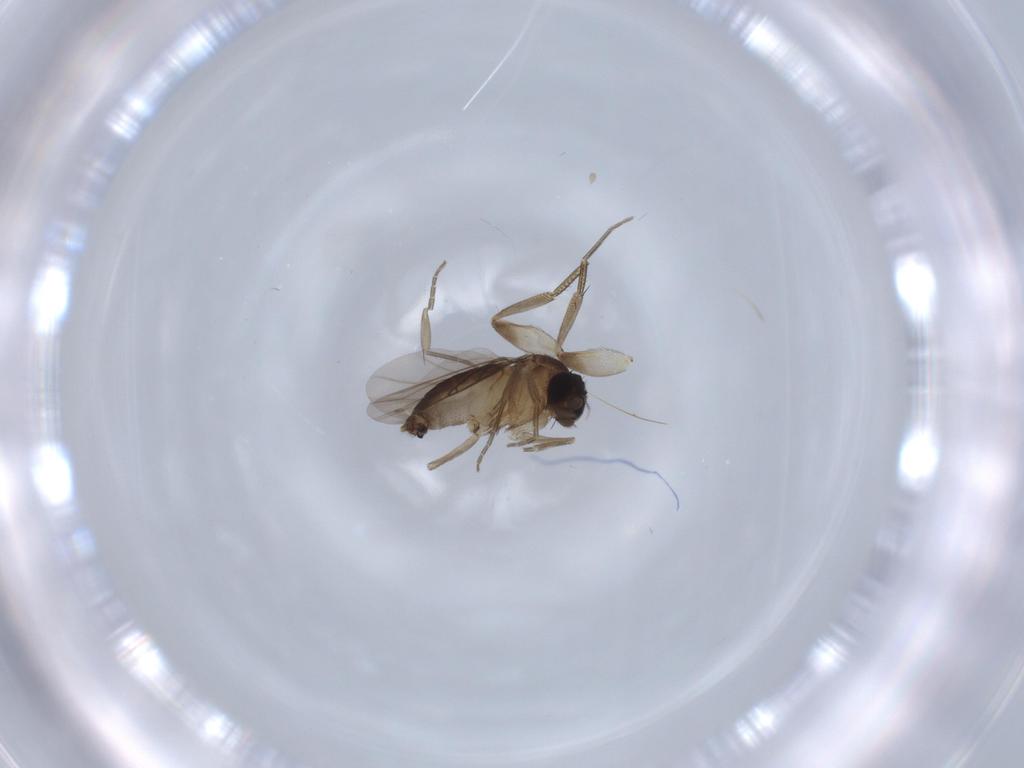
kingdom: Animalia
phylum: Arthropoda
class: Insecta
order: Diptera
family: Phoridae
